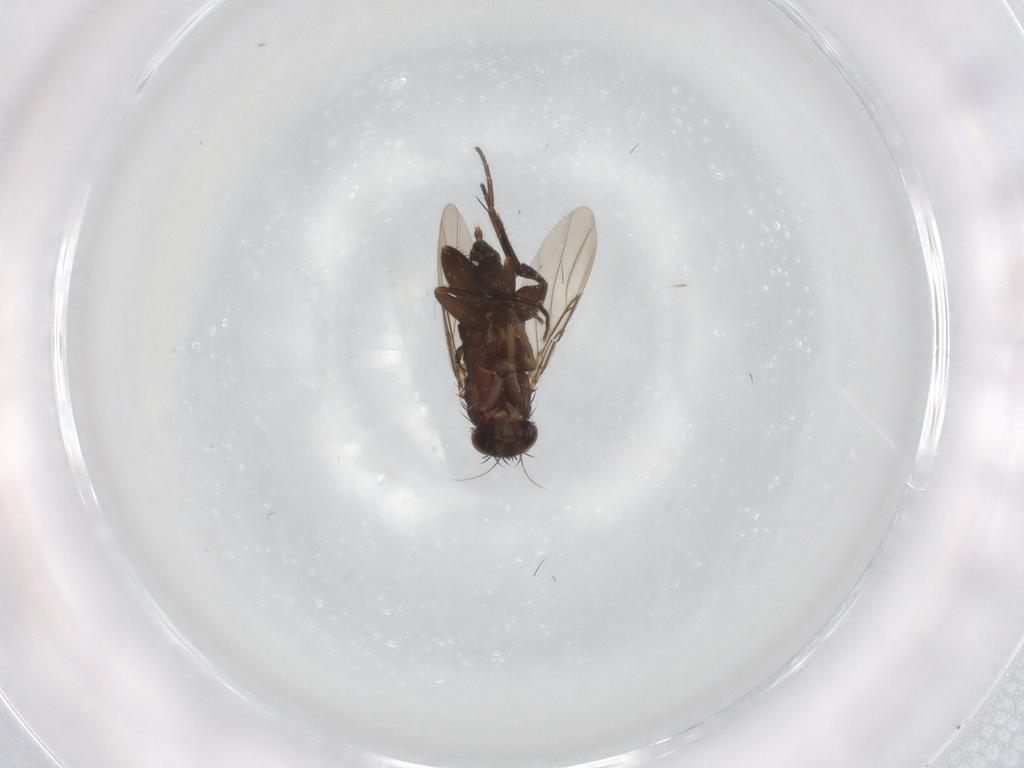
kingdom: Animalia
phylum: Arthropoda
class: Insecta
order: Diptera
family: Phoridae
